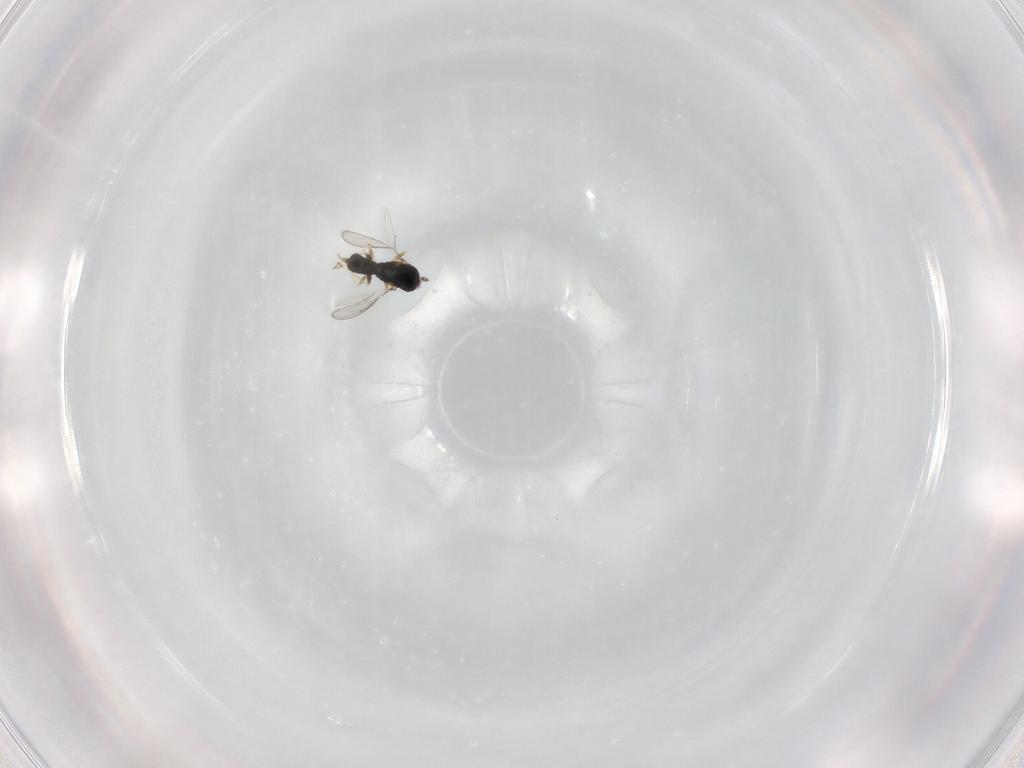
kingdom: Animalia
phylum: Arthropoda
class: Insecta
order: Hymenoptera
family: Eulophidae
